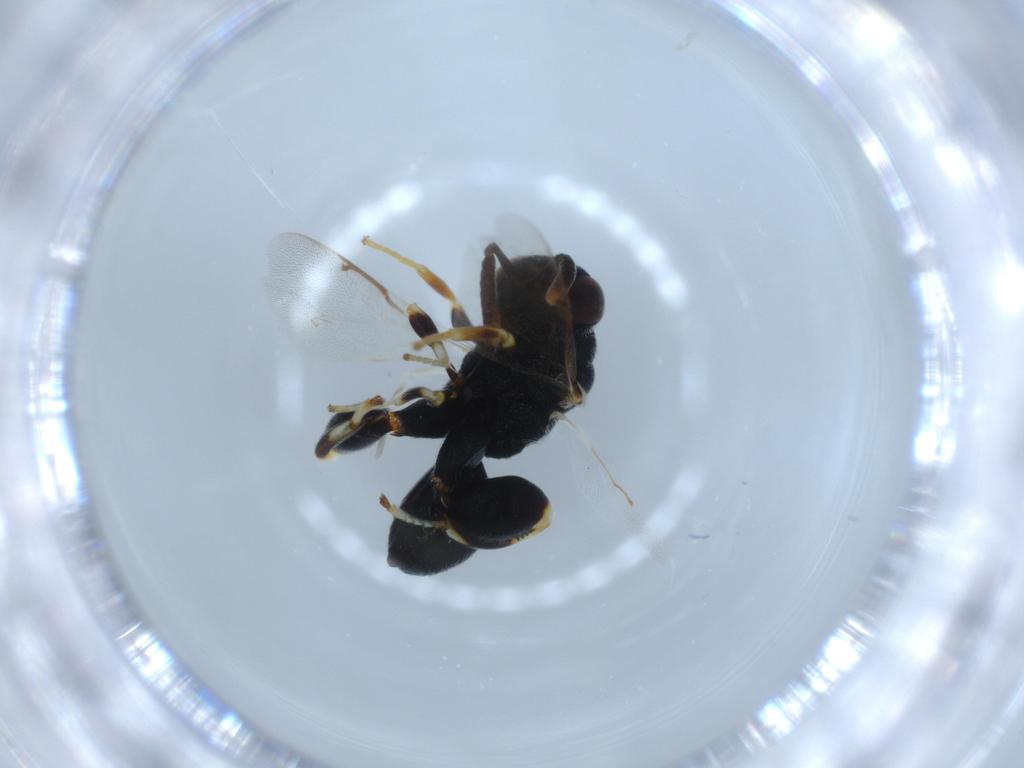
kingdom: Animalia
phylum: Arthropoda
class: Insecta
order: Hymenoptera
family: Chalcididae
